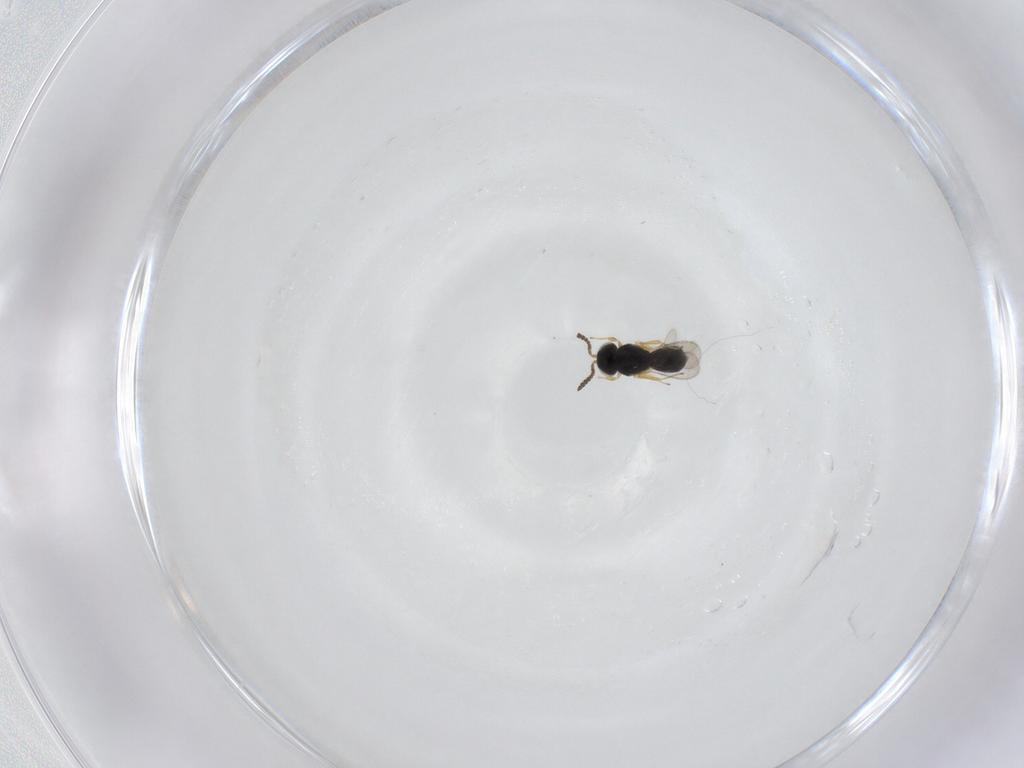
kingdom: Animalia
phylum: Arthropoda
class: Insecta
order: Hymenoptera
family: Scelionidae
